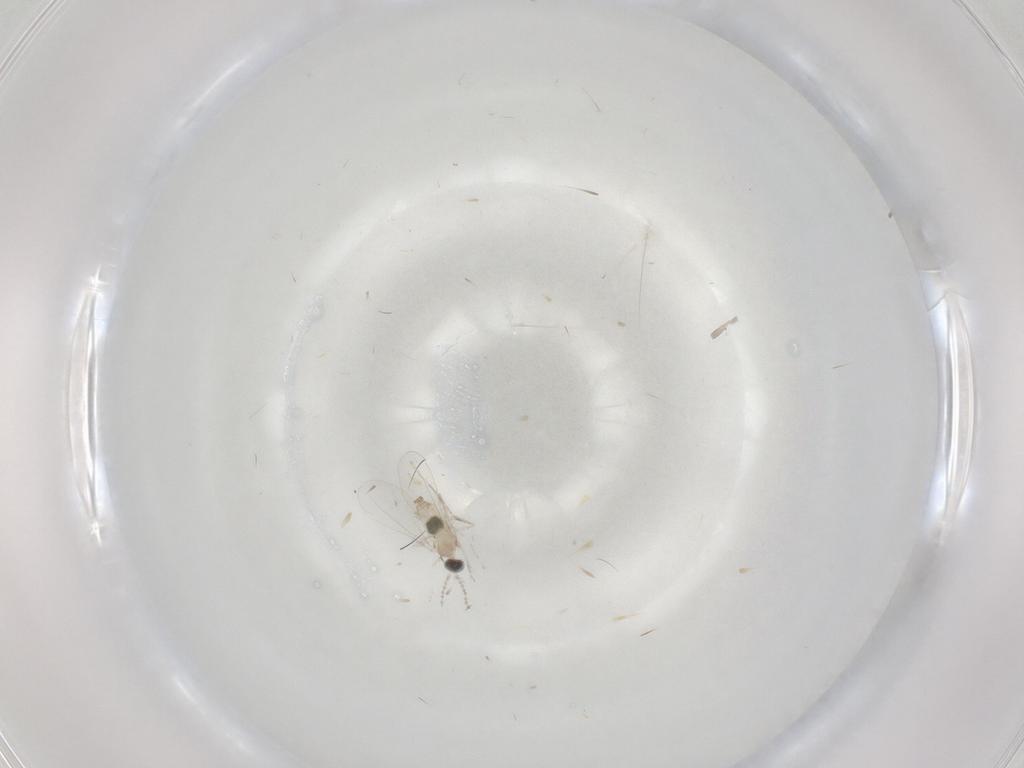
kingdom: Animalia
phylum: Arthropoda
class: Insecta
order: Diptera
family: Cecidomyiidae
